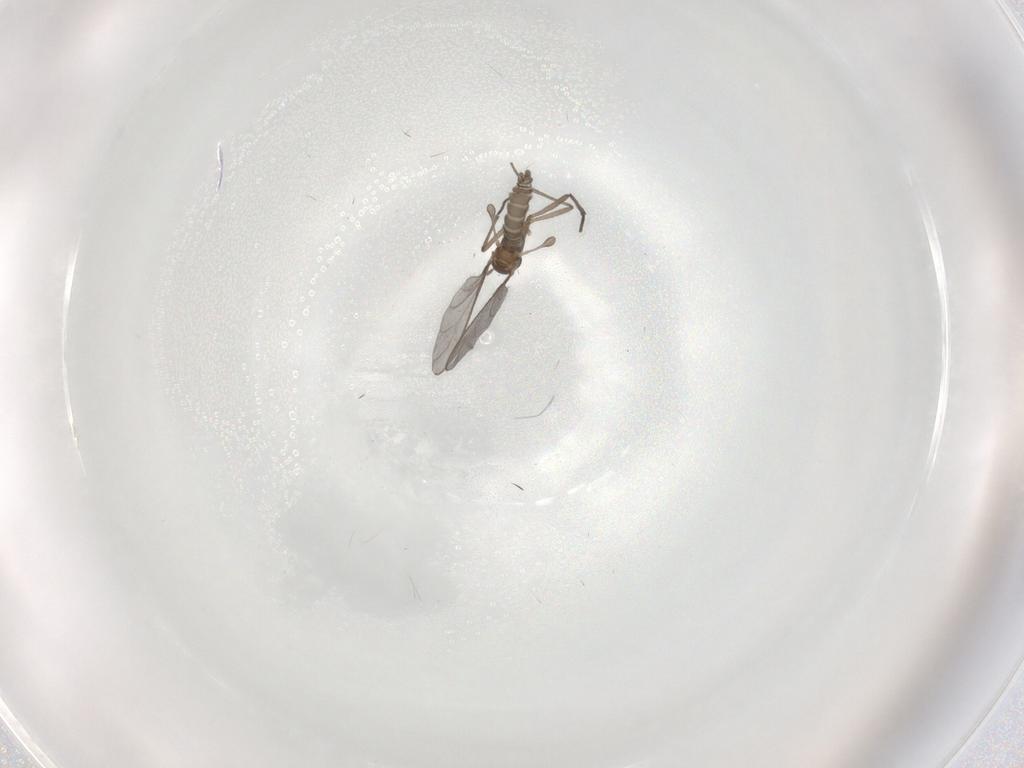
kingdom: Animalia
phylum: Arthropoda
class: Insecta
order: Diptera
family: Sciaridae
